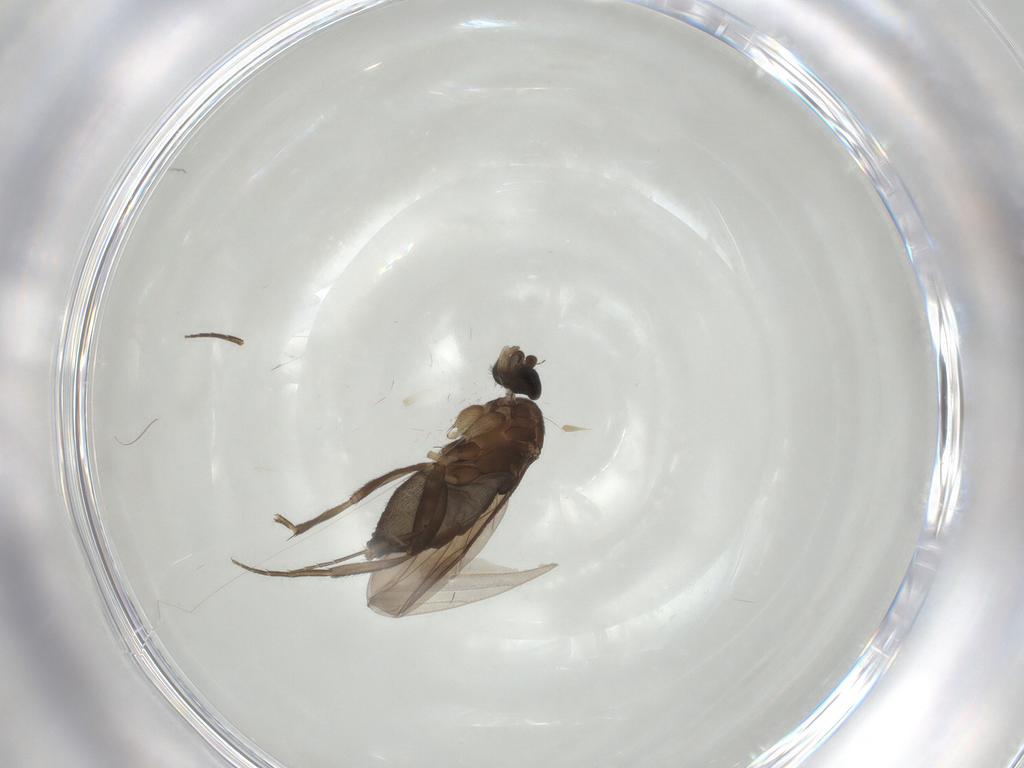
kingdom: Animalia
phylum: Arthropoda
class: Insecta
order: Diptera
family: Phoridae
